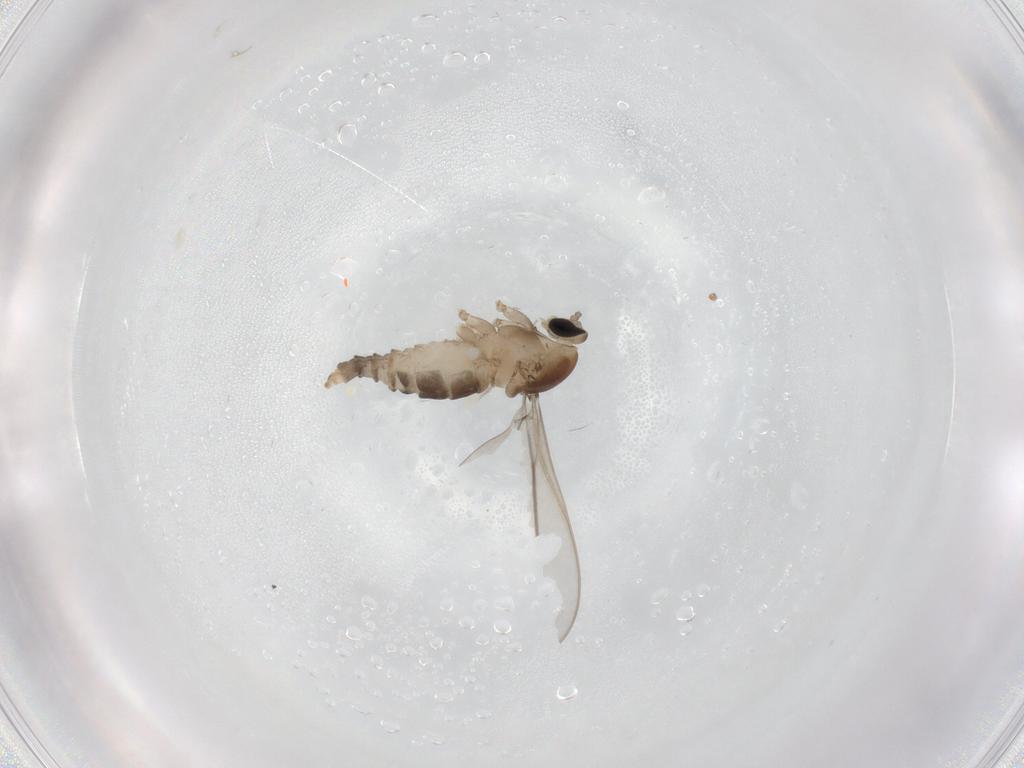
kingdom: Animalia
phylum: Arthropoda
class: Insecta
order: Diptera
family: Cecidomyiidae
